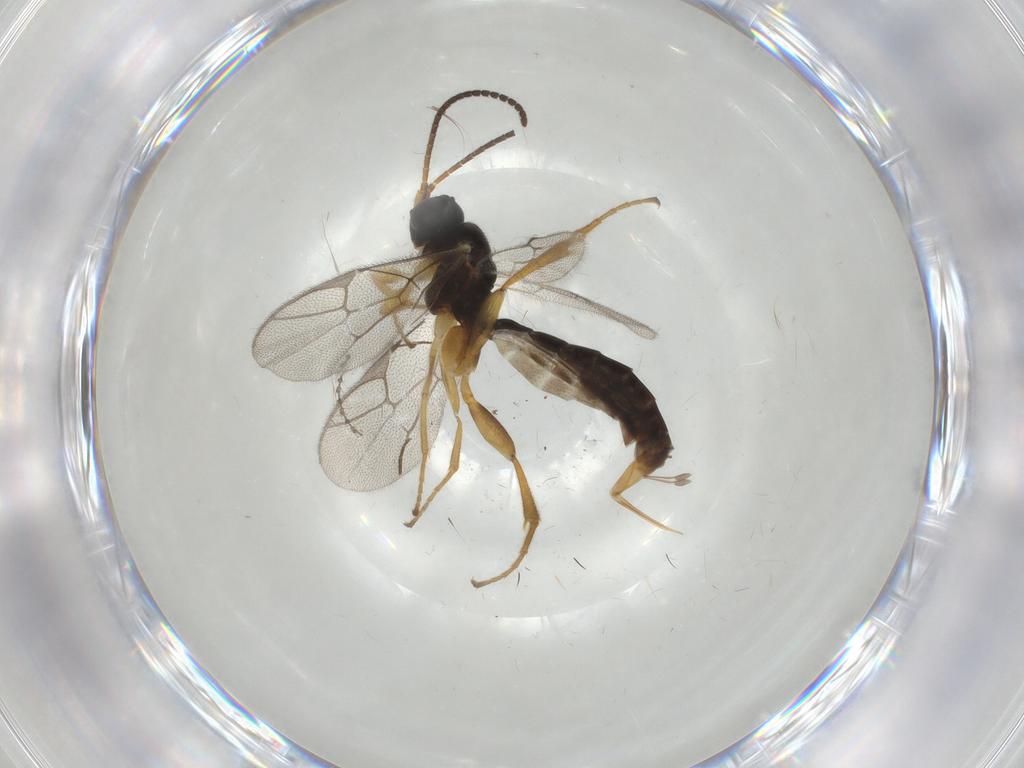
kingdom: Animalia
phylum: Arthropoda
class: Insecta
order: Hymenoptera
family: Ichneumonidae
